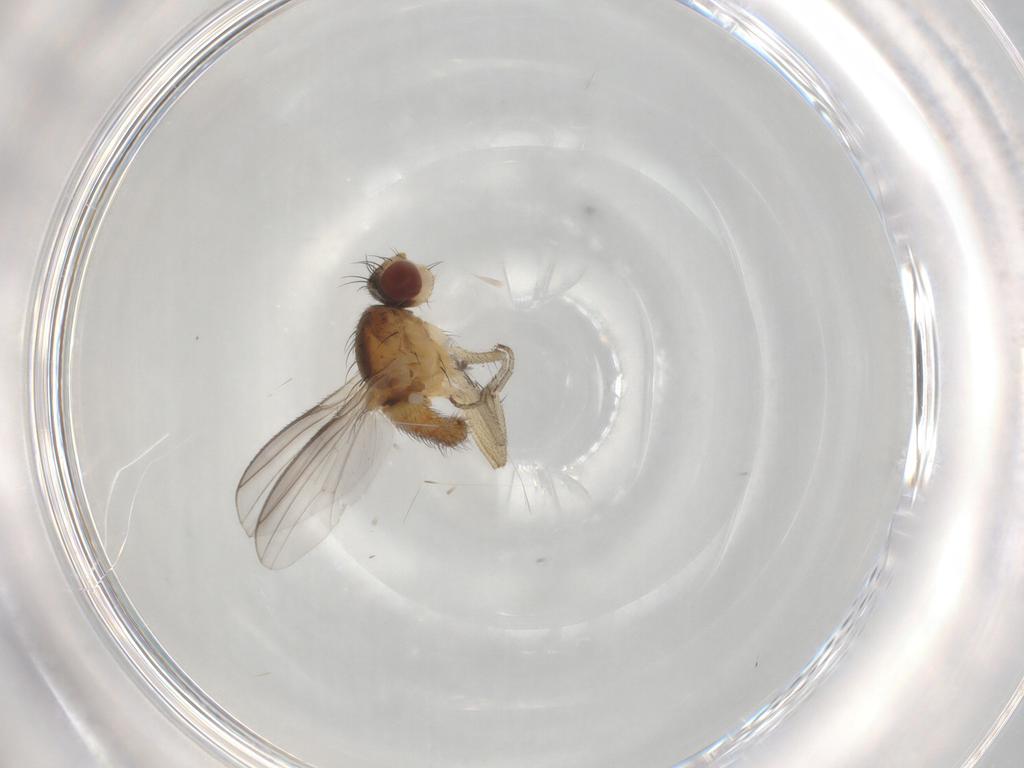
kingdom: Animalia
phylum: Arthropoda
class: Insecta
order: Diptera
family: Heleomyzidae
